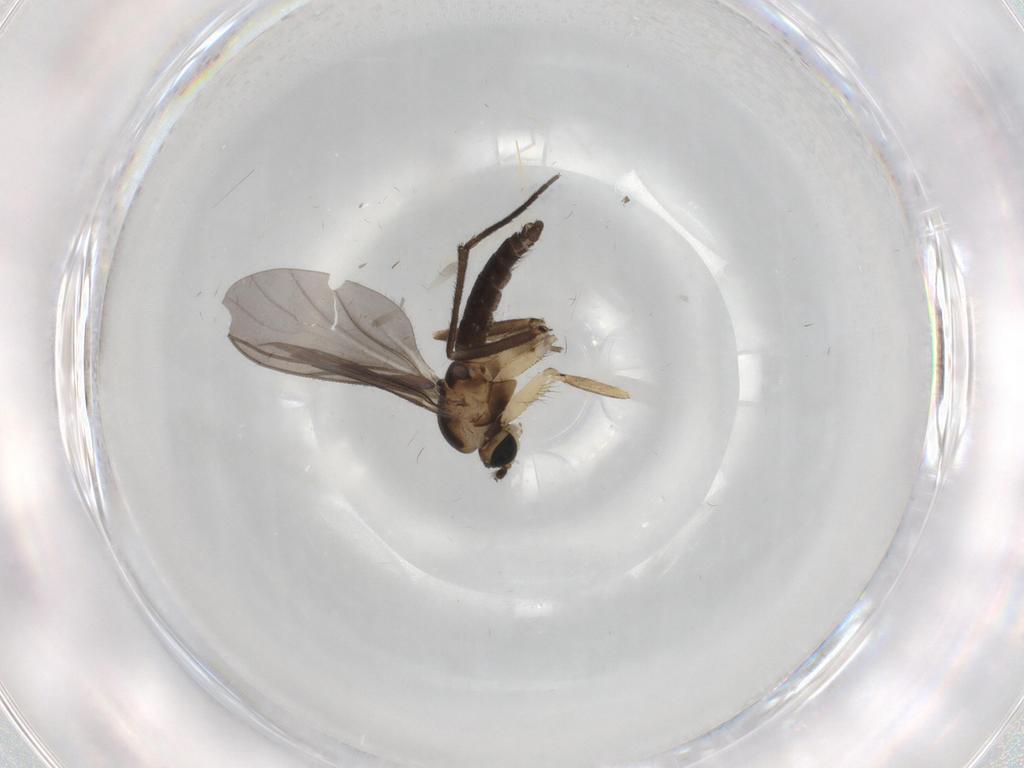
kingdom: Animalia
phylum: Arthropoda
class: Insecta
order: Diptera
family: Sciaridae
